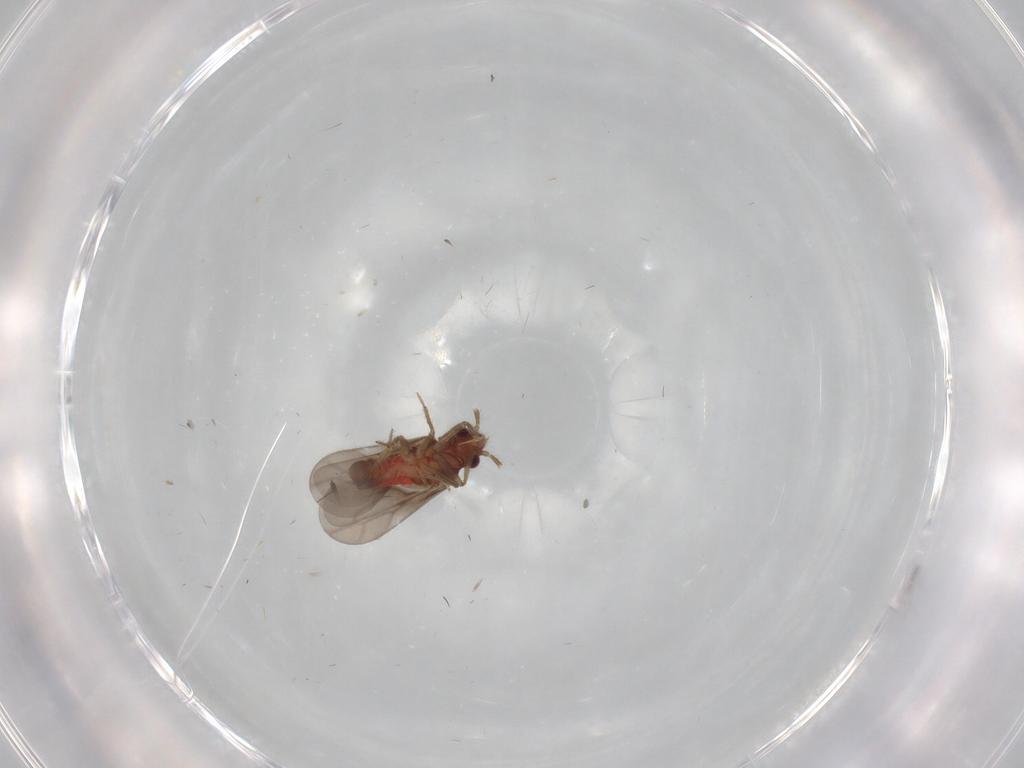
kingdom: Animalia
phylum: Arthropoda
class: Insecta
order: Hemiptera
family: Ceratocombidae
